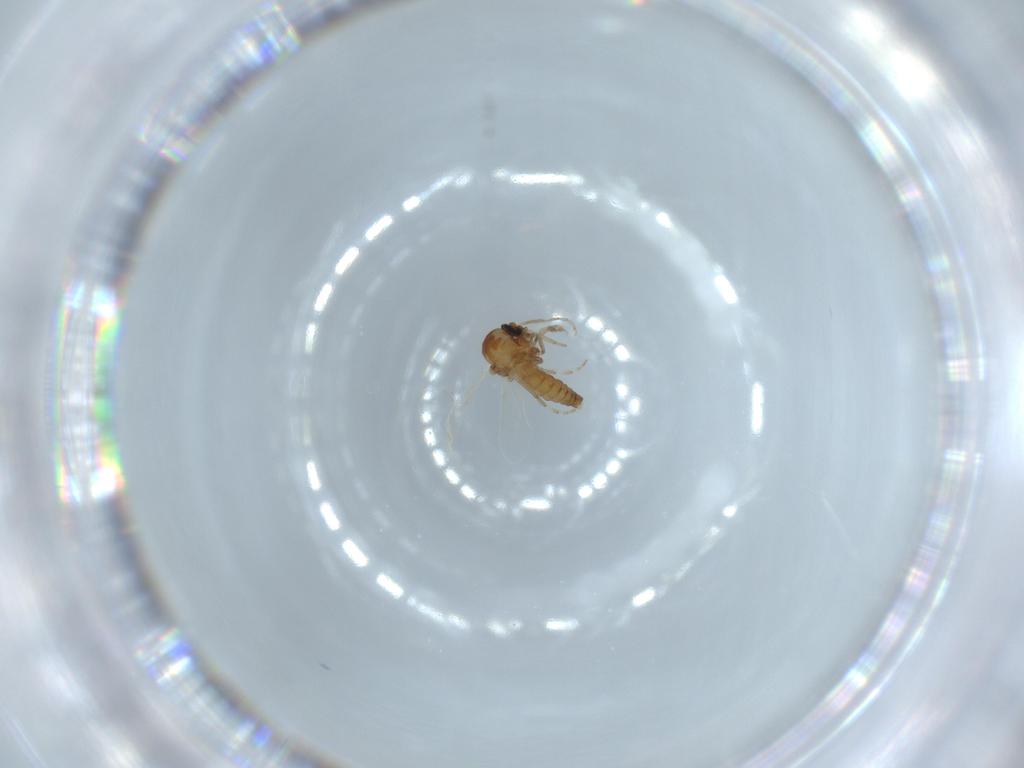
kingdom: Animalia
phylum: Arthropoda
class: Insecta
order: Diptera
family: Ceratopogonidae
